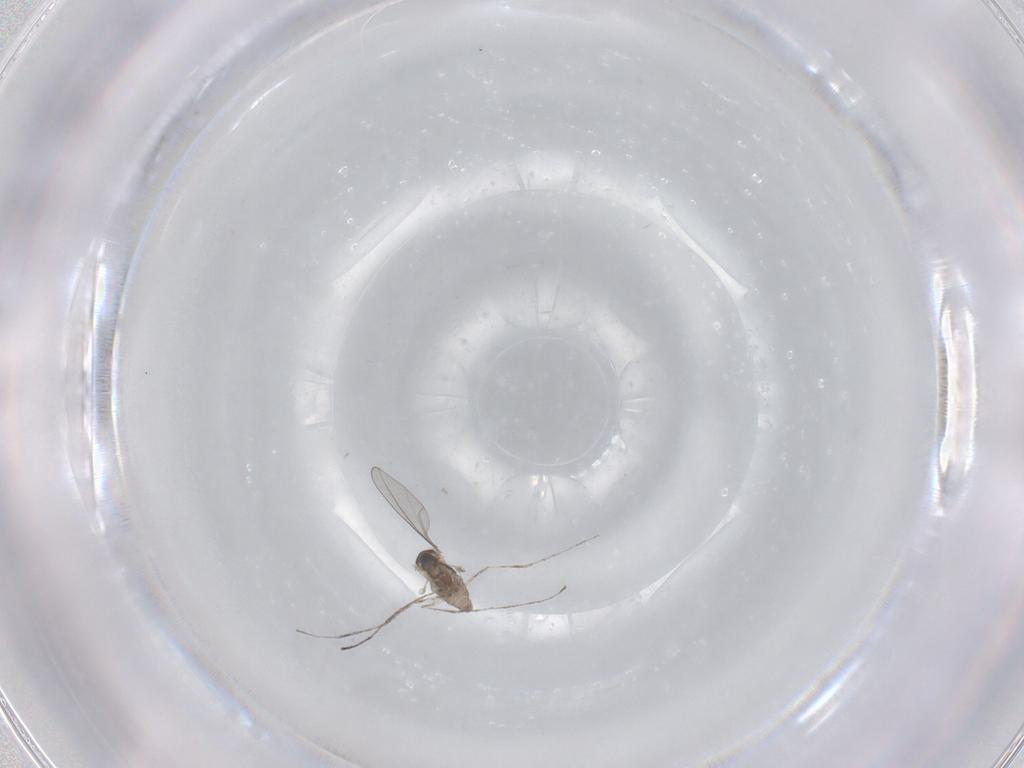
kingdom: Animalia
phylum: Arthropoda
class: Insecta
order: Diptera
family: Cecidomyiidae
